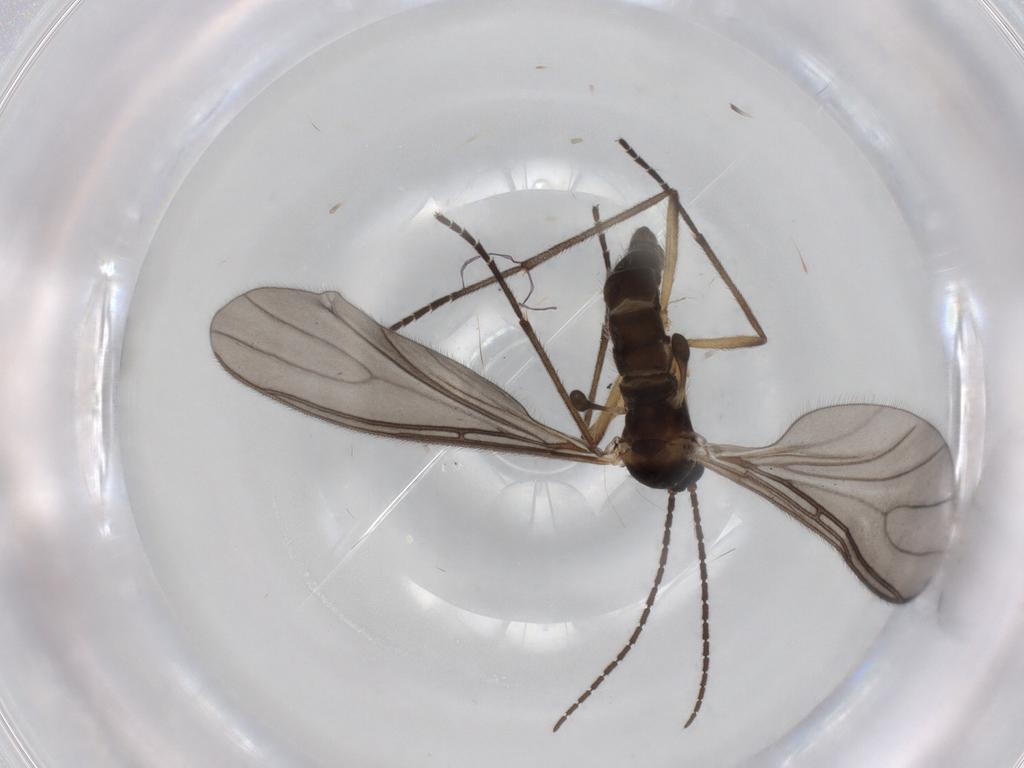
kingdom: Animalia
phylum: Arthropoda
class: Insecta
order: Diptera
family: Sciaridae
